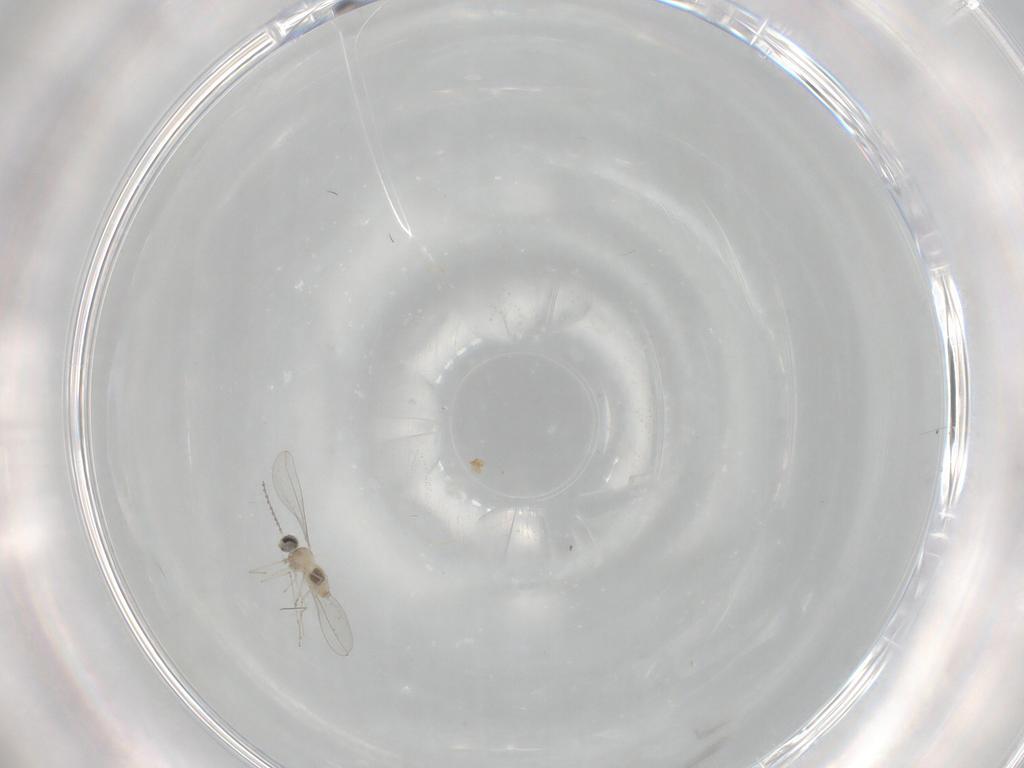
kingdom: Animalia
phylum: Arthropoda
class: Insecta
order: Diptera
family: Cecidomyiidae
